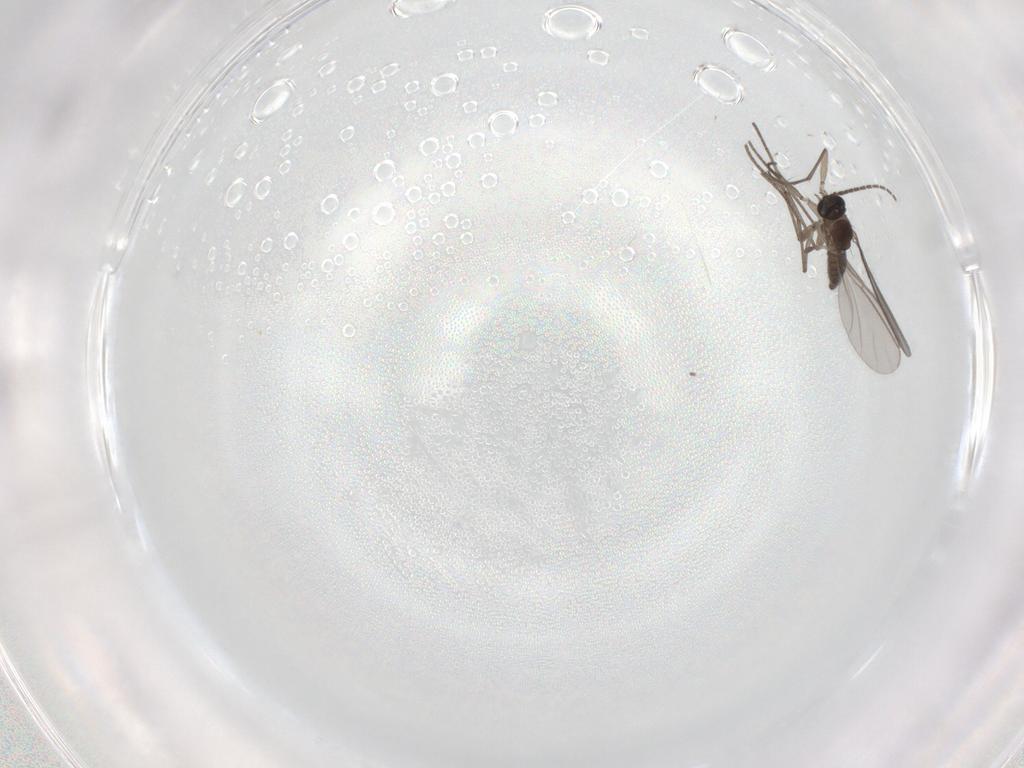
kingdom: Animalia
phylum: Arthropoda
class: Insecta
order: Diptera
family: Sciaridae
